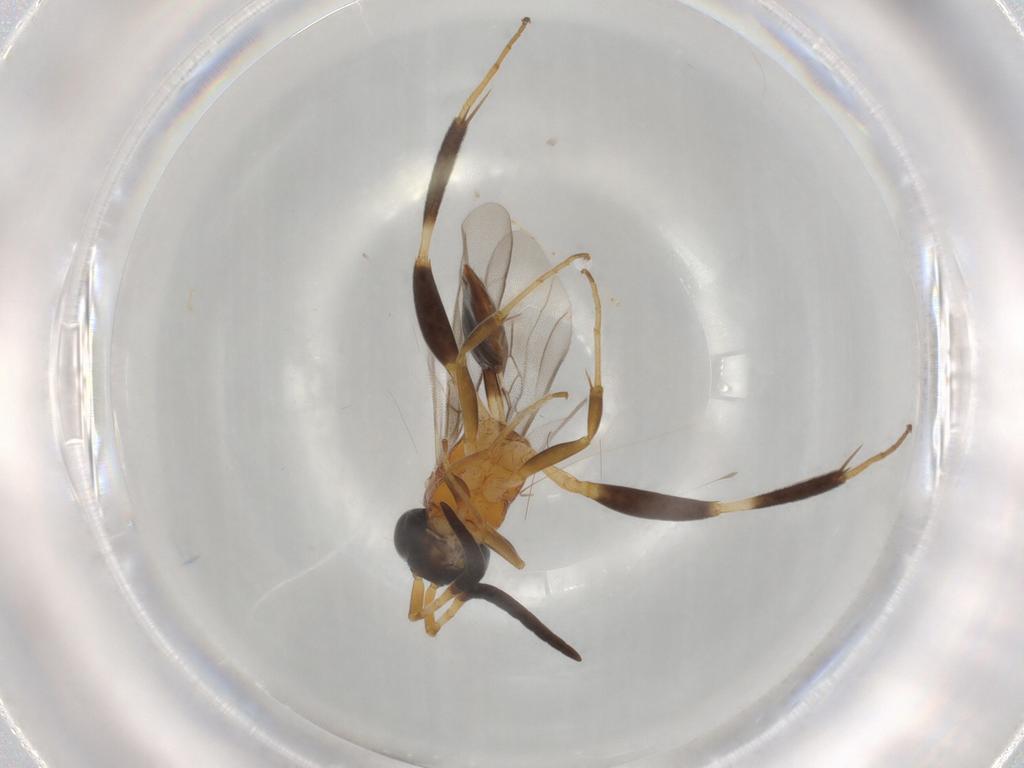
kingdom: Animalia
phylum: Arthropoda
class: Insecta
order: Hymenoptera
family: Evaniidae
